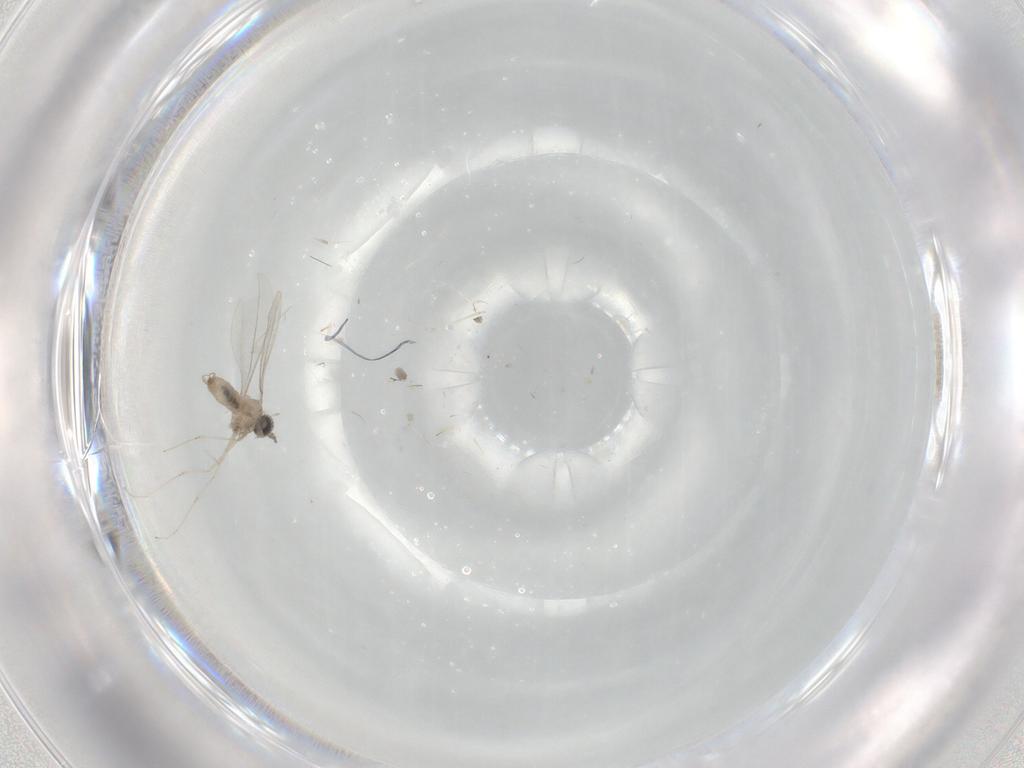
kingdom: Animalia
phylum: Arthropoda
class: Insecta
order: Diptera
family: Cecidomyiidae
